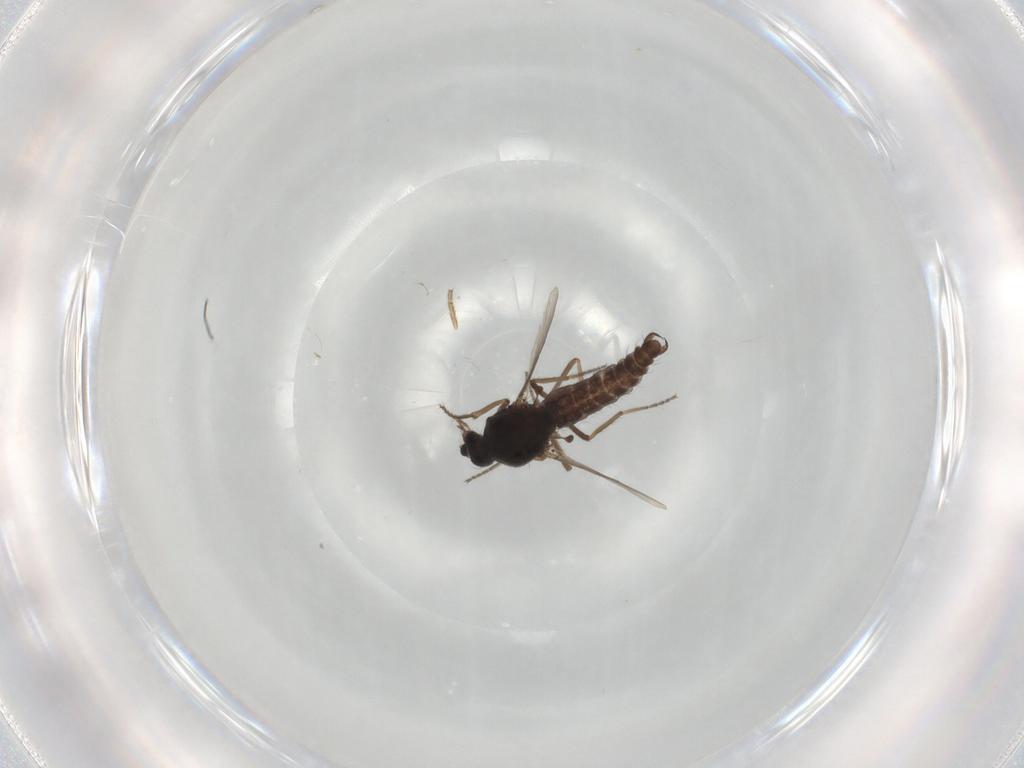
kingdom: Animalia
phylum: Arthropoda
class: Insecta
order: Diptera
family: Ceratopogonidae
